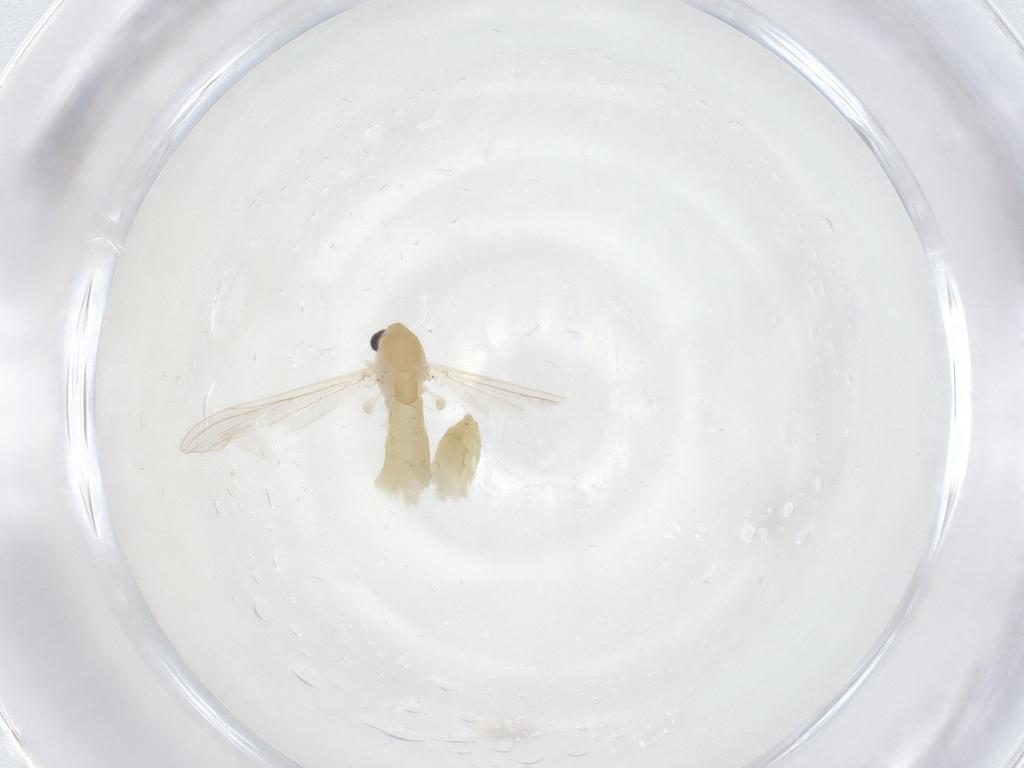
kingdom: Animalia
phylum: Arthropoda
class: Insecta
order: Diptera
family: Chironomidae
